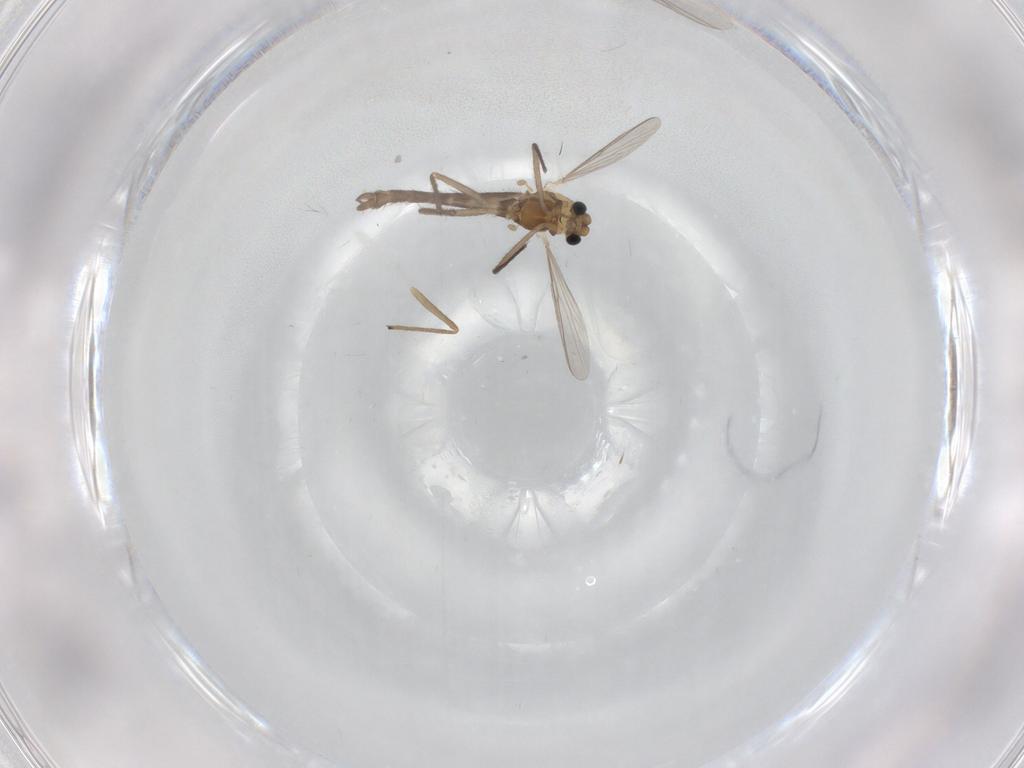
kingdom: Animalia
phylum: Arthropoda
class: Insecta
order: Diptera
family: Chironomidae
